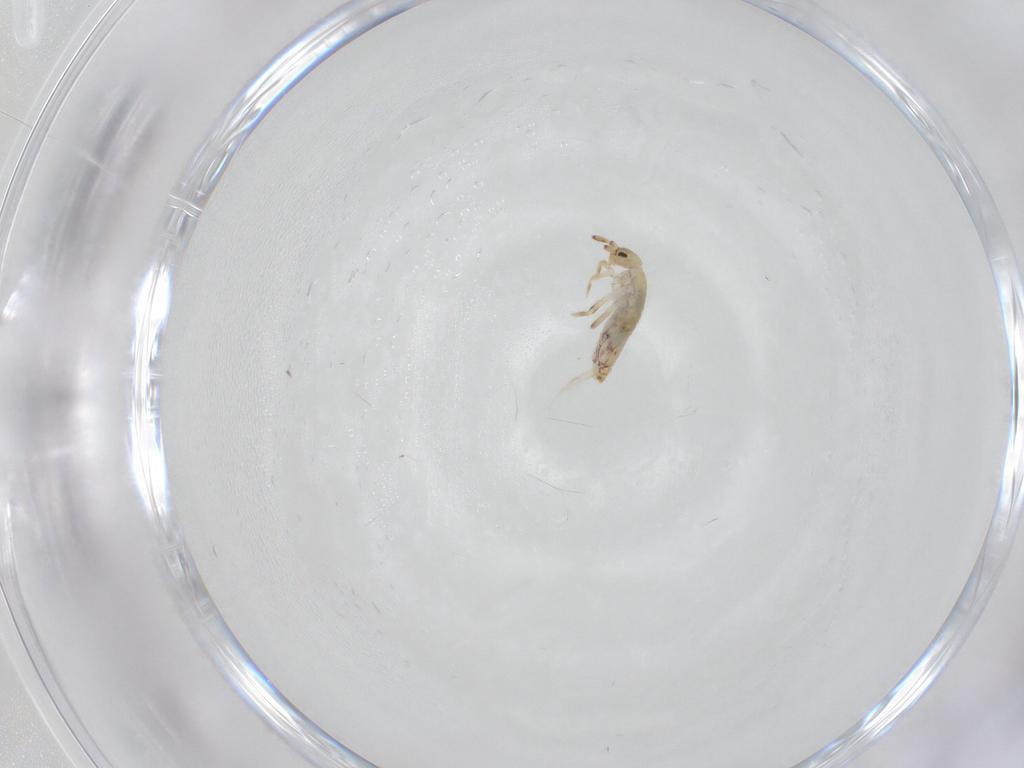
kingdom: Animalia
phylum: Arthropoda
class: Collembola
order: Entomobryomorpha
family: Entomobryidae
